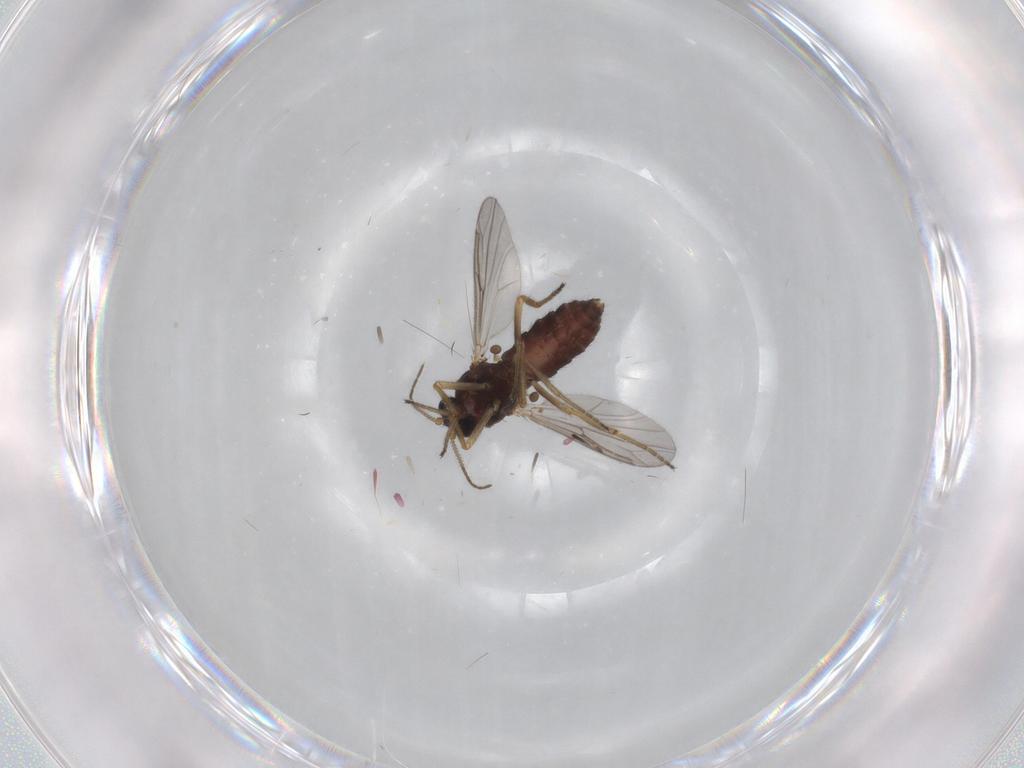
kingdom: Animalia
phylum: Arthropoda
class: Insecta
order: Diptera
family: Ceratopogonidae
